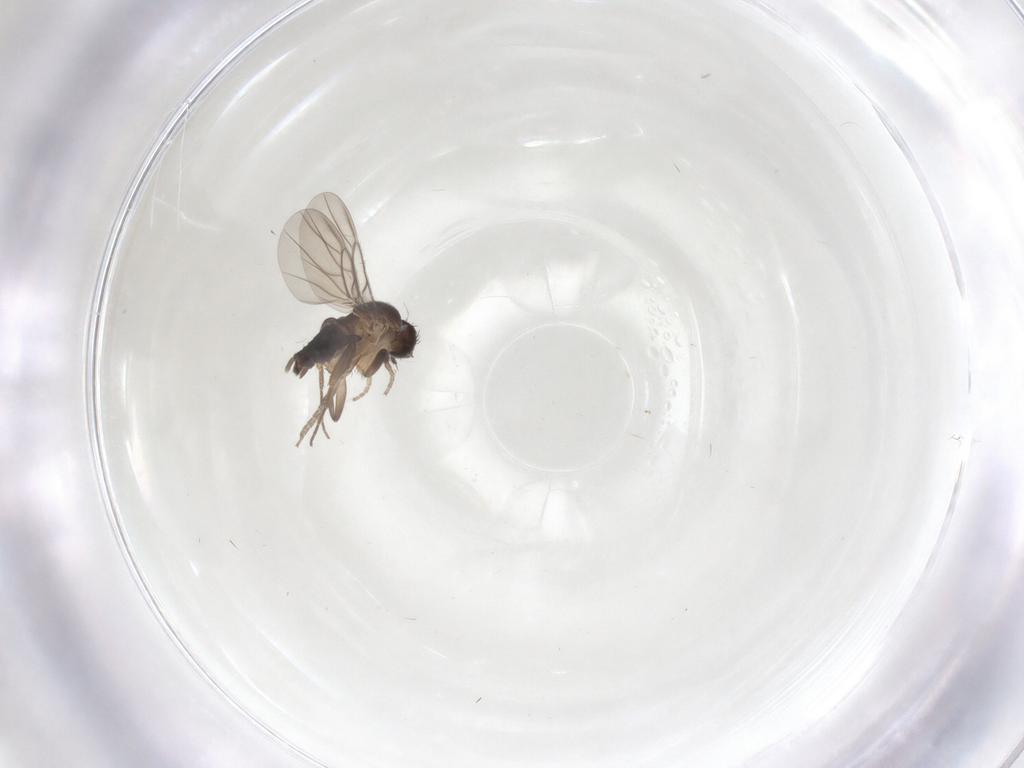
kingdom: Animalia
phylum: Arthropoda
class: Insecta
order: Diptera
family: Phoridae
